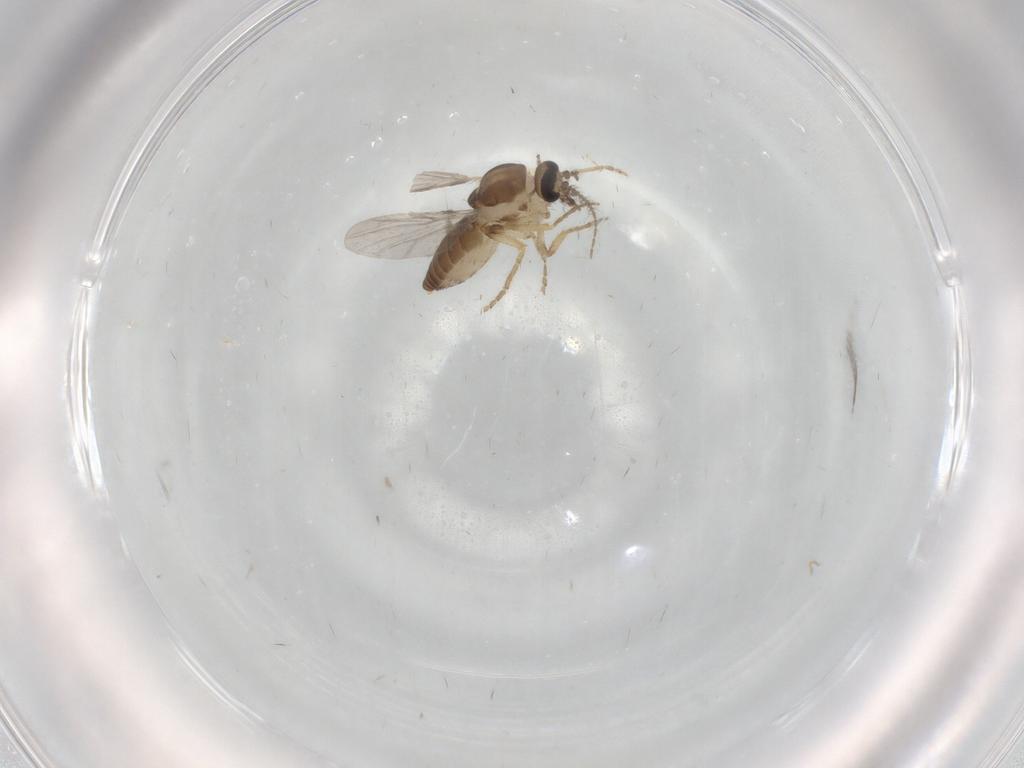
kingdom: Animalia
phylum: Arthropoda
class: Insecta
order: Diptera
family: Ceratopogonidae
